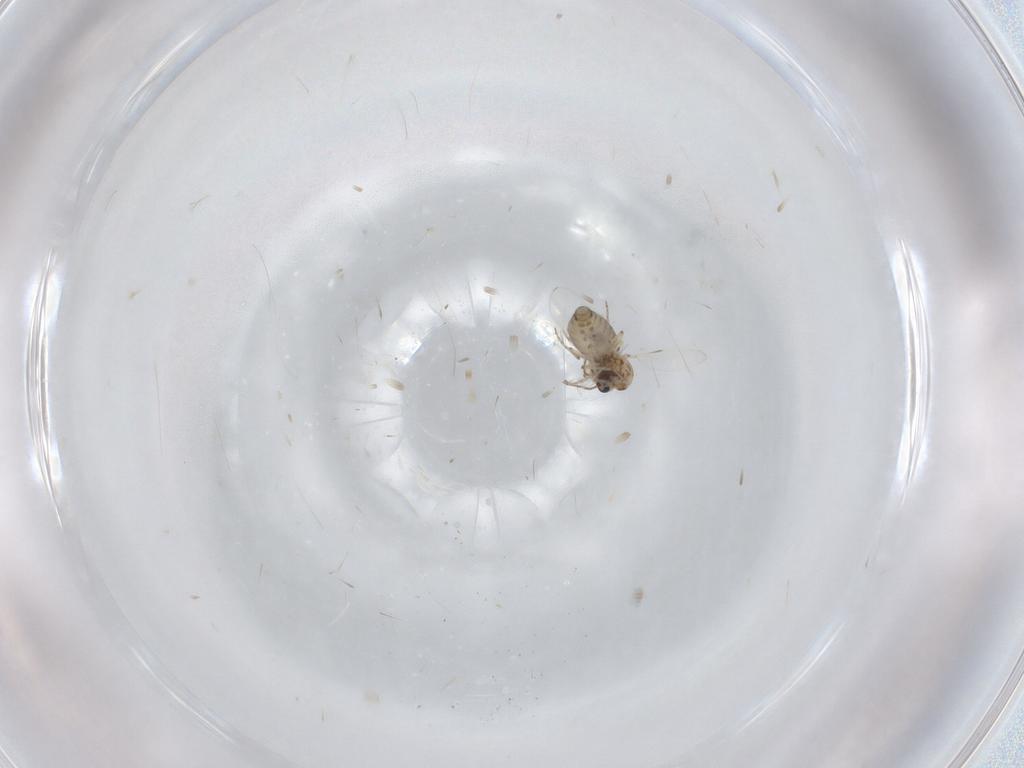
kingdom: Animalia
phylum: Arthropoda
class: Insecta
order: Diptera
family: Ceratopogonidae
